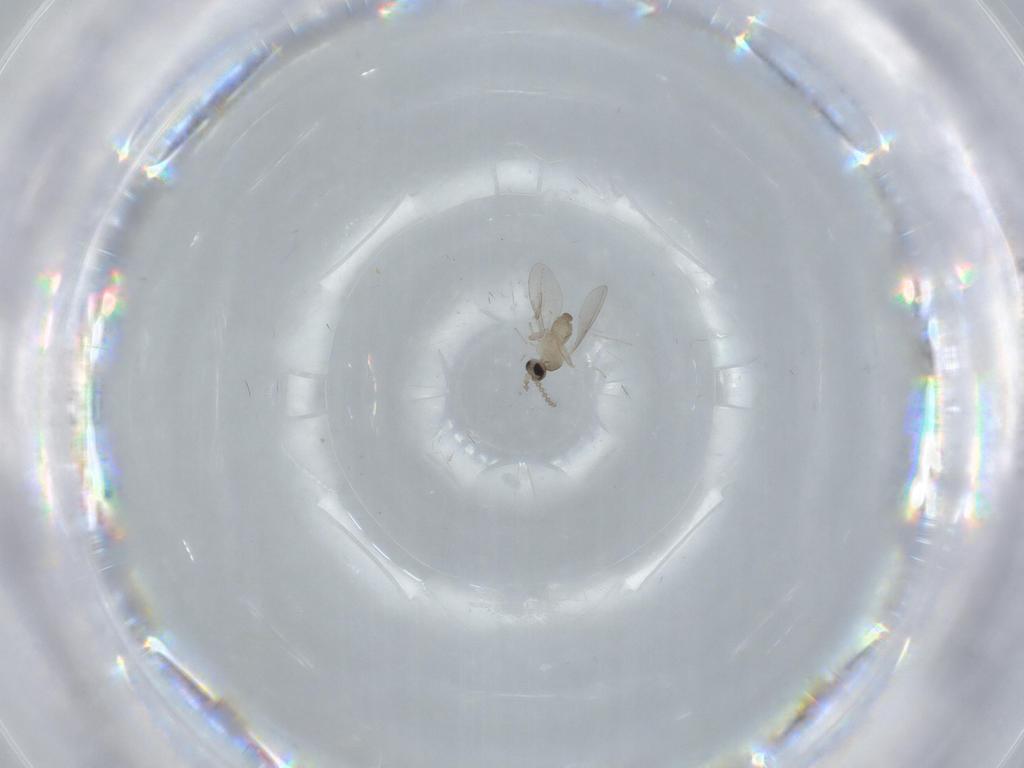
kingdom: Animalia
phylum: Arthropoda
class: Insecta
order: Diptera
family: Cecidomyiidae
